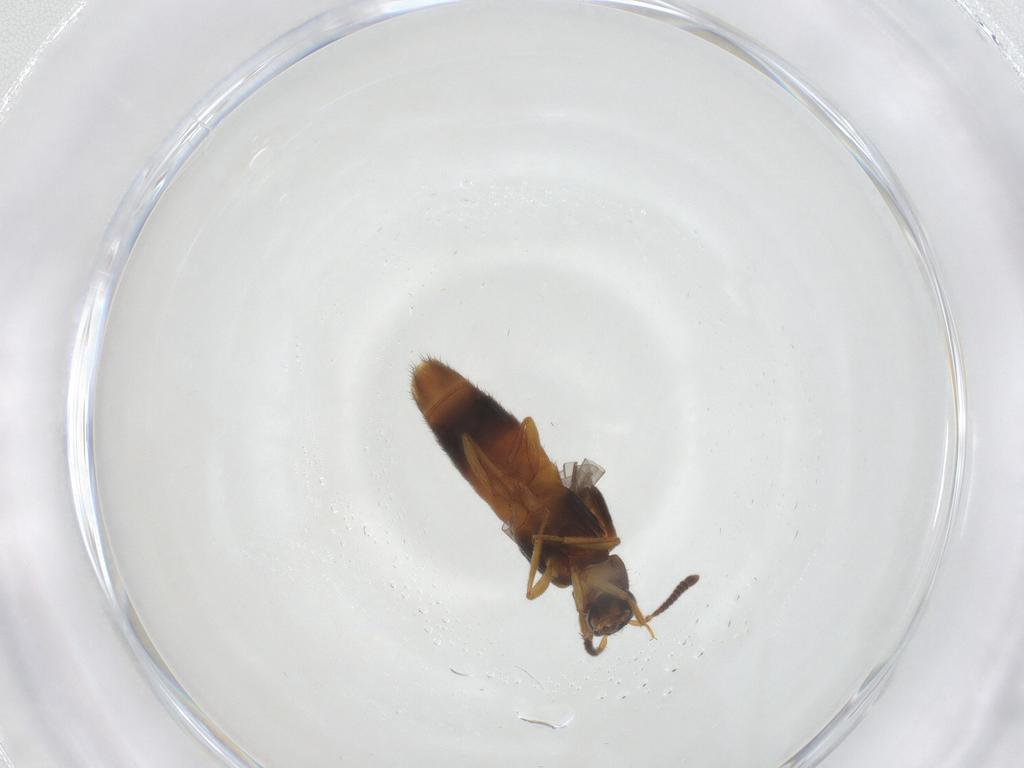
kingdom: Animalia
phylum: Arthropoda
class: Insecta
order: Coleoptera
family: Staphylinidae
